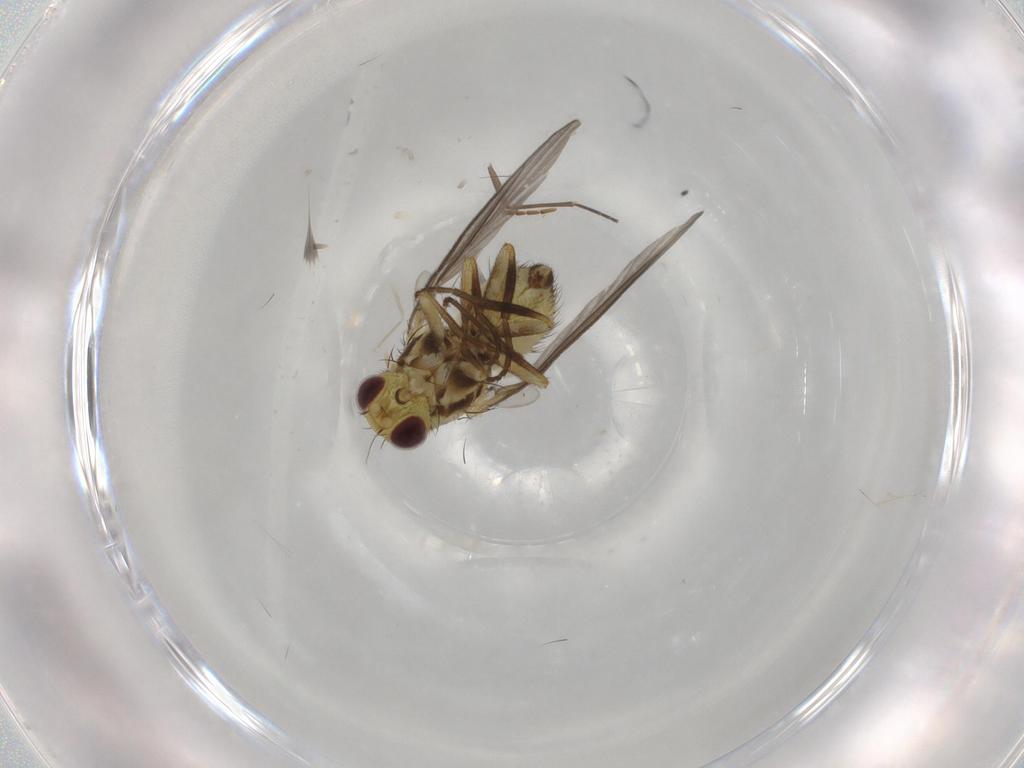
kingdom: Animalia
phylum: Arthropoda
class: Insecta
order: Diptera
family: Agromyzidae
